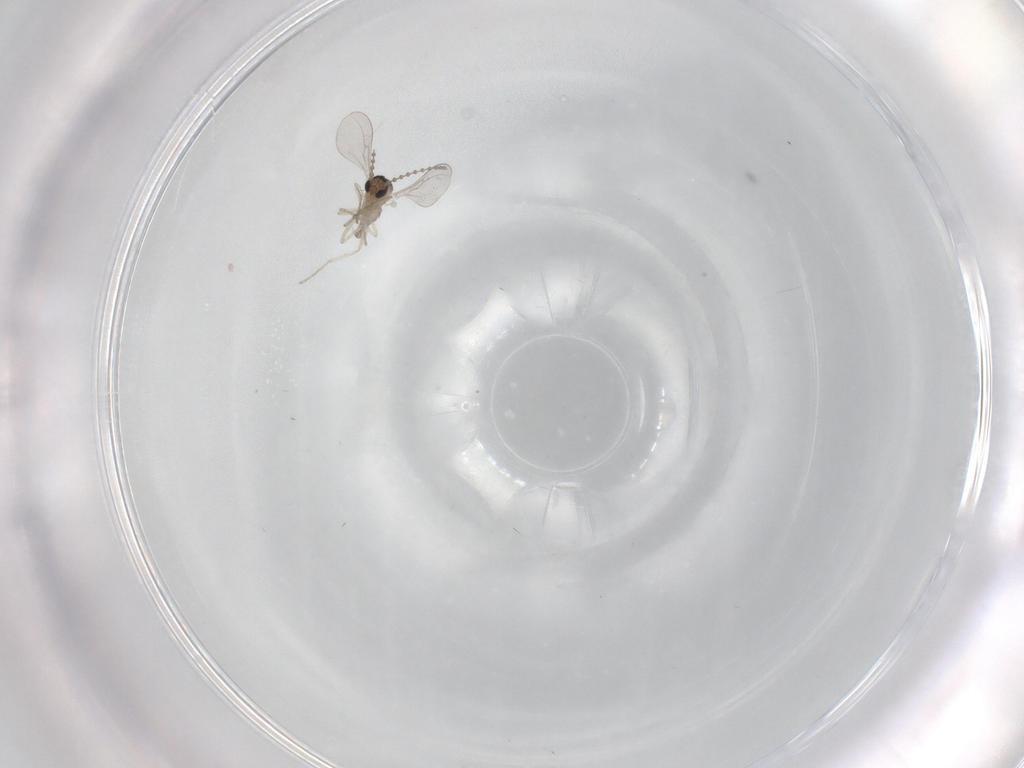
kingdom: Animalia
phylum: Arthropoda
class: Insecta
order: Diptera
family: Cecidomyiidae
